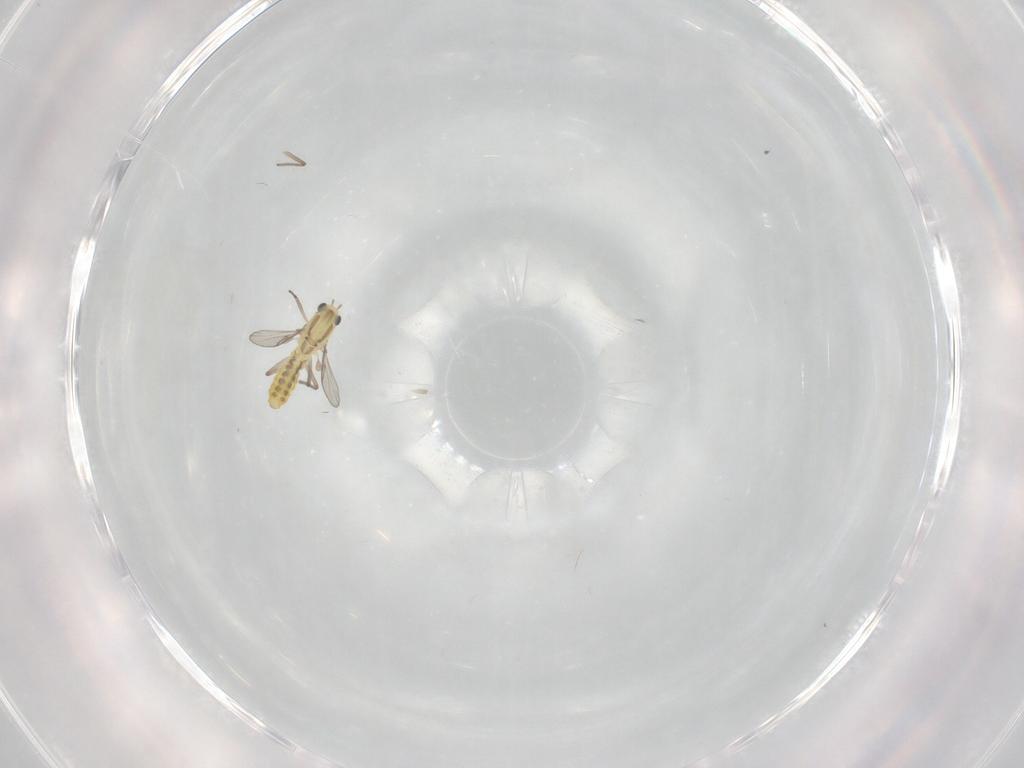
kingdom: Animalia
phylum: Arthropoda
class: Insecta
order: Diptera
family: Chironomidae
